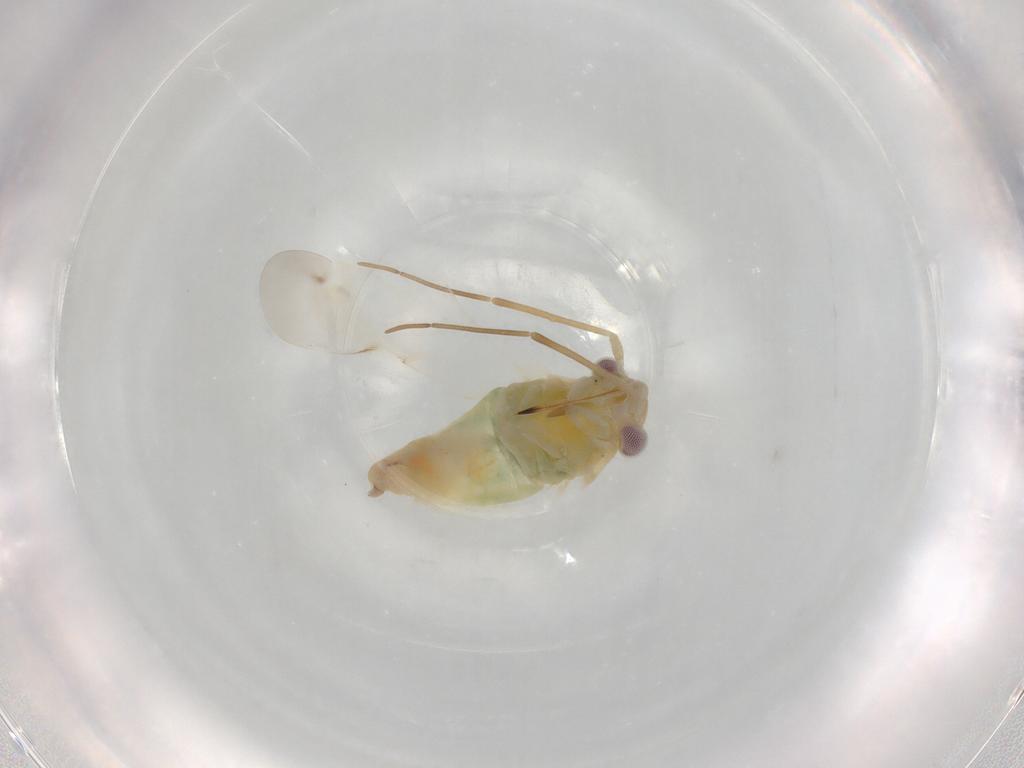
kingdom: Animalia
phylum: Arthropoda
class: Insecta
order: Hemiptera
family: Miridae
